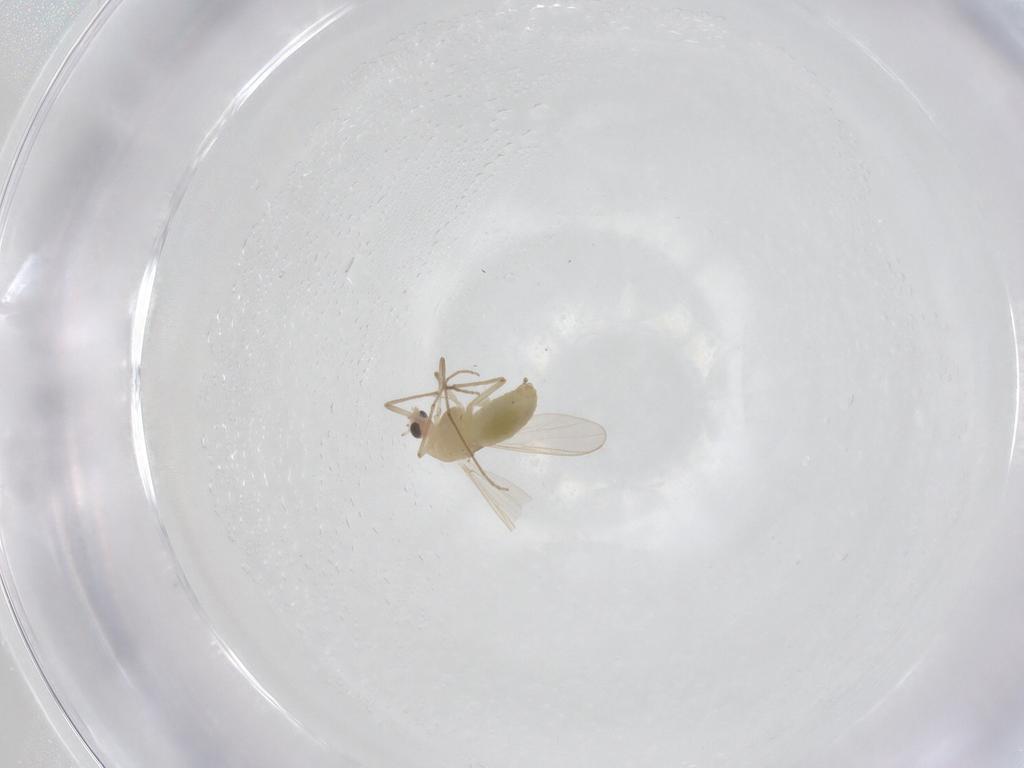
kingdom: Animalia
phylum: Arthropoda
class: Insecta
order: Diptera
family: Chironomidae
